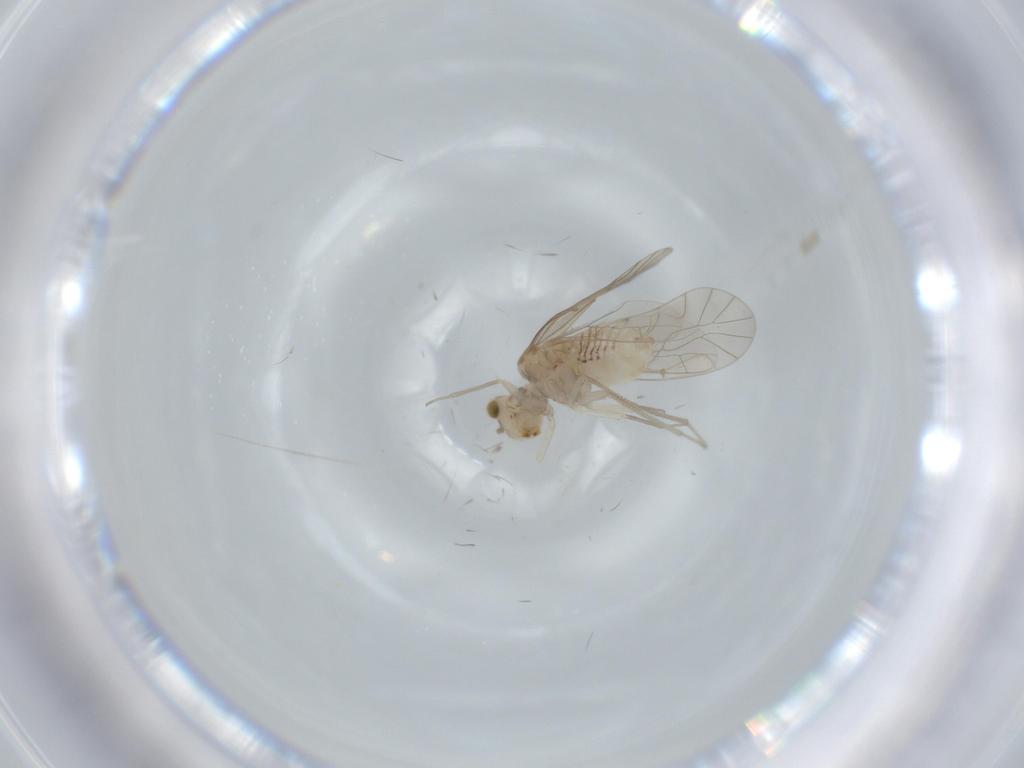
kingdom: Animalia
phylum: Arthropoda
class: Insecta
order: Psocodea
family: Lachesillidae
